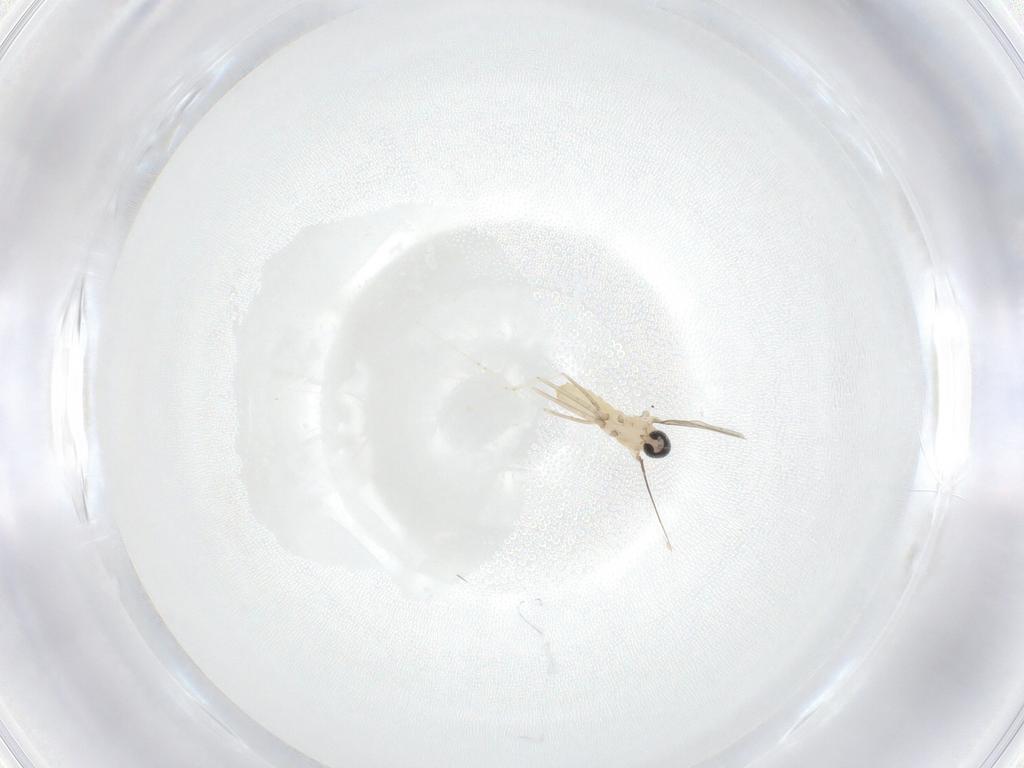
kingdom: Animalia
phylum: Arthropoda
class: Insecta
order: Diptera
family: Cecidomyiidae
